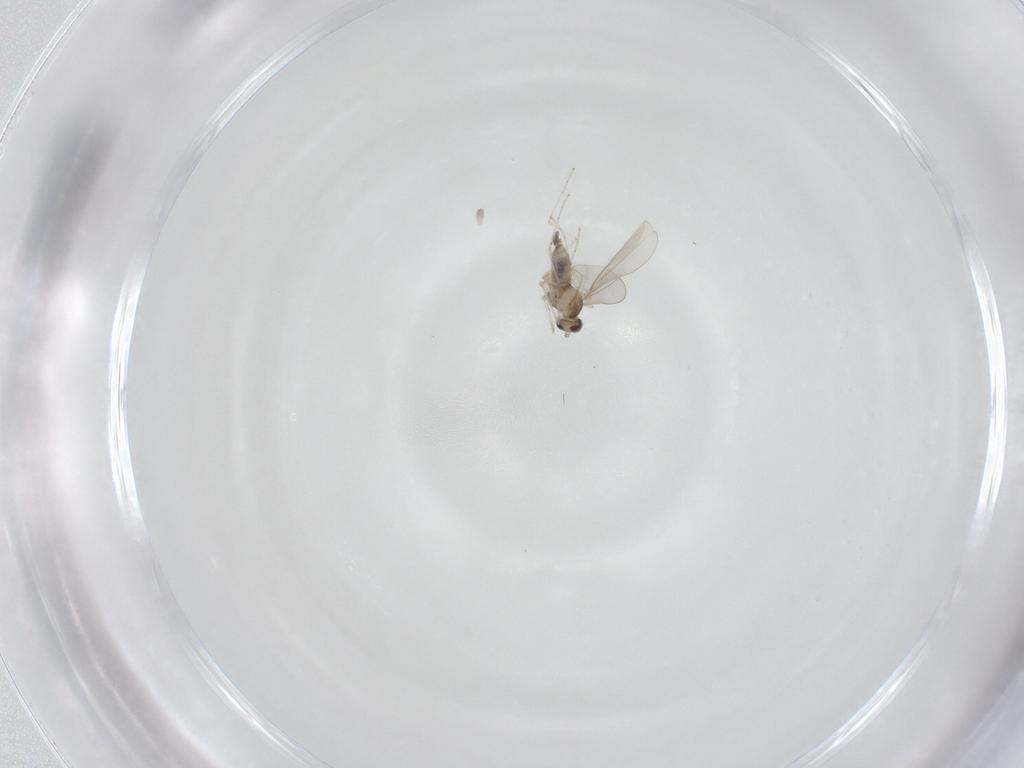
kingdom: Animalia
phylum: Arthropoda
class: Insecta
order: Diptera
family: Cecidomyiidae
